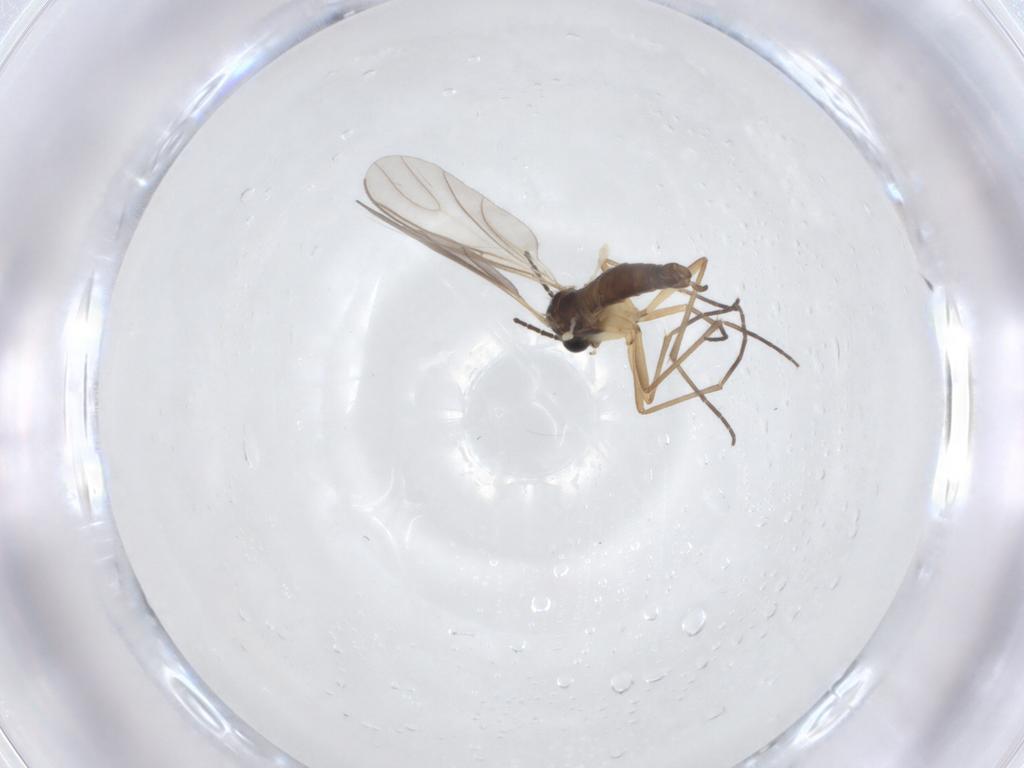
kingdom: Animalia
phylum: Arthropoda
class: Insecta
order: Diptera
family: Sciaridae
